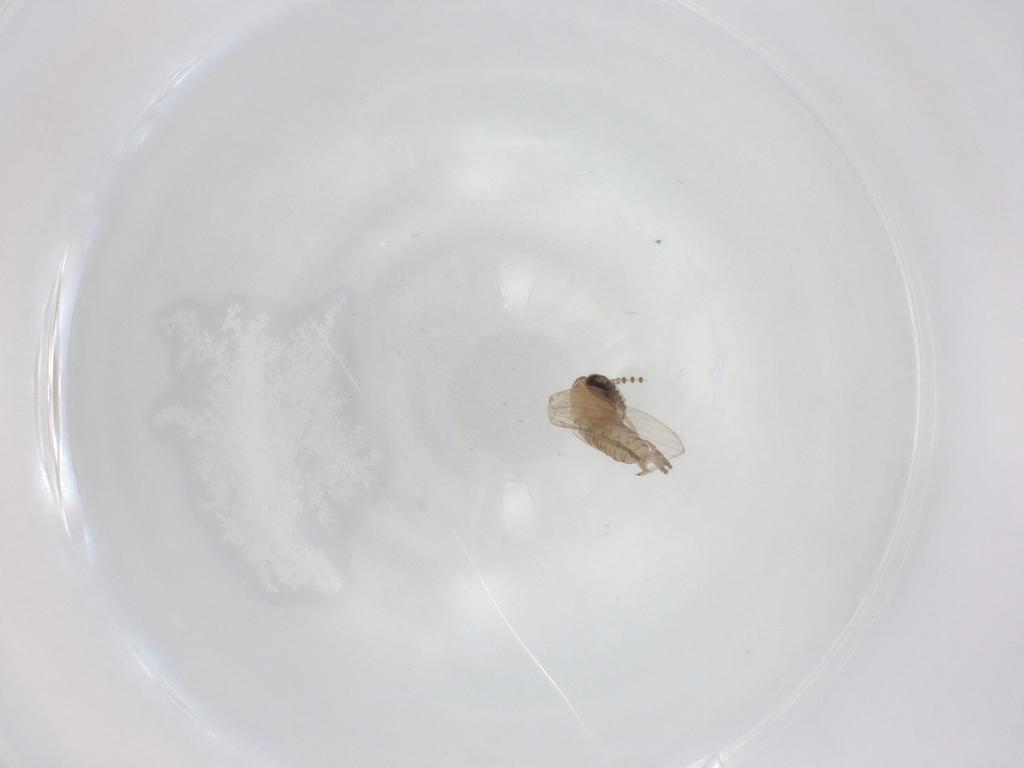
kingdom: Animalia
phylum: Arthropoda
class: Insecta
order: Diptera
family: Psychodidae
